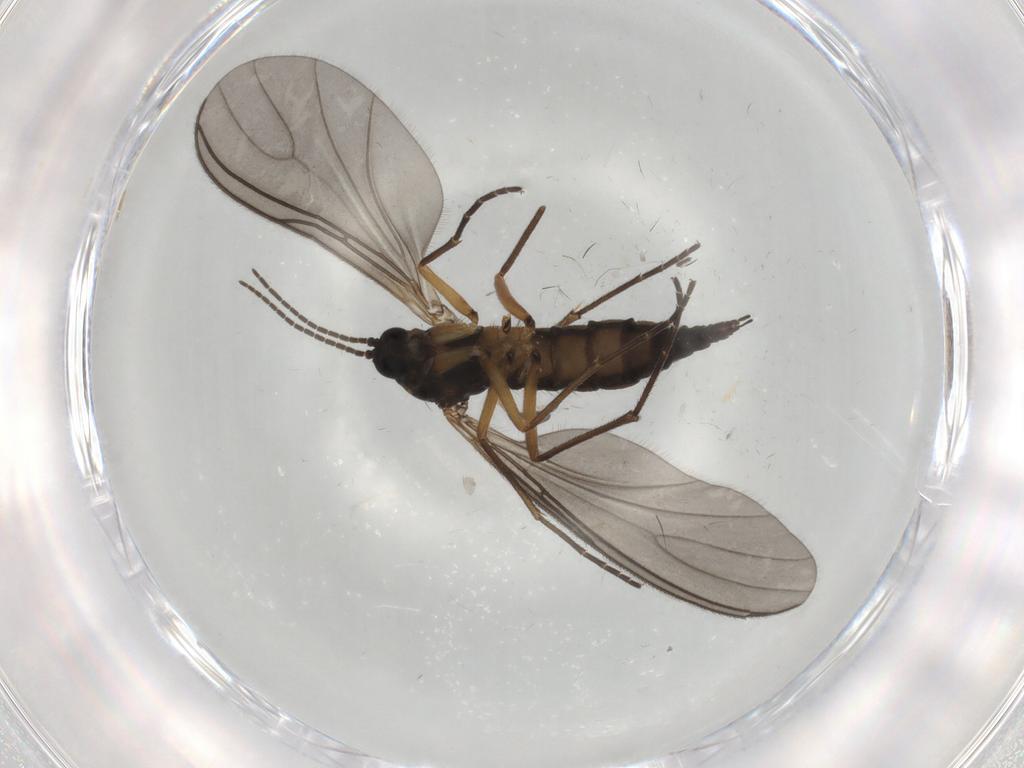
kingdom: Animalia
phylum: Arthropoda
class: Insecta
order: Diptera
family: Sciaridae
